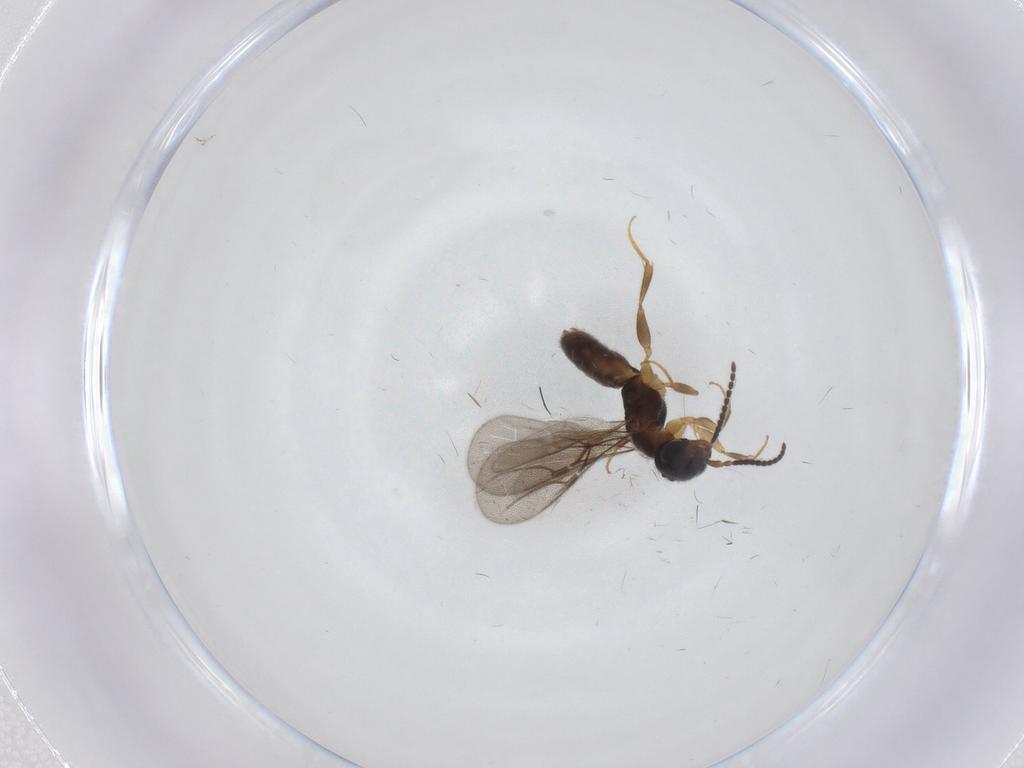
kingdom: Animalia
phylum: Arthropoda
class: Insecta
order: Hymenoptera
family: Bethylidae
